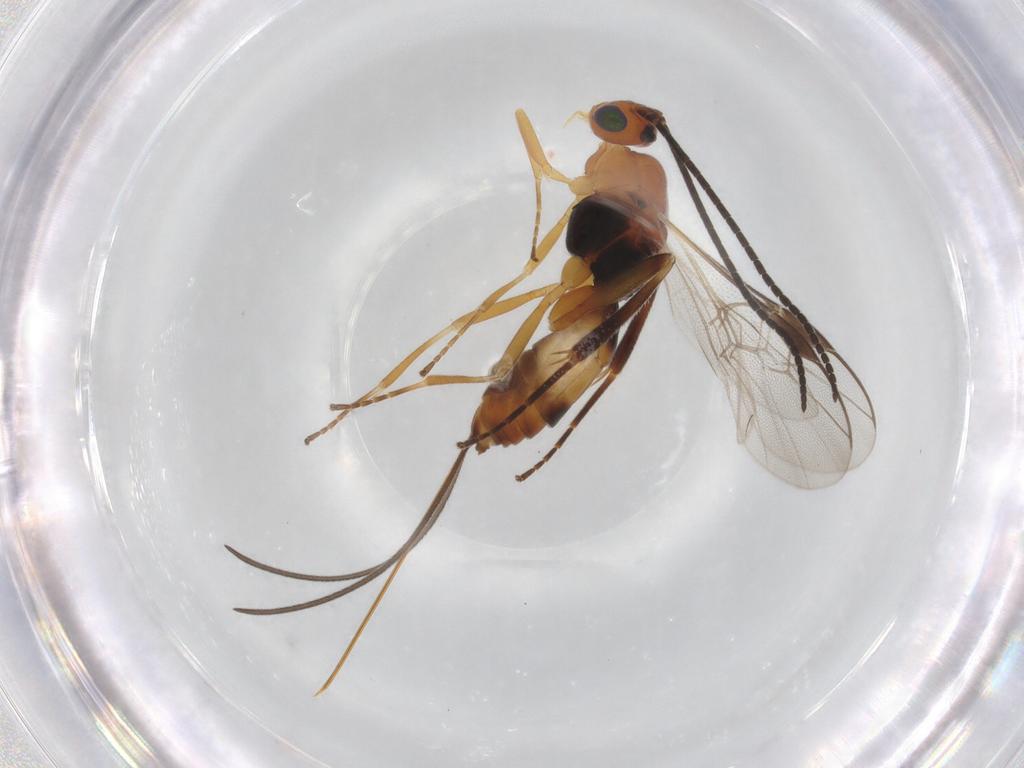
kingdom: Animalia
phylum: Arthropoda
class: Insecta
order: Hymenoptera
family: Braconidae
